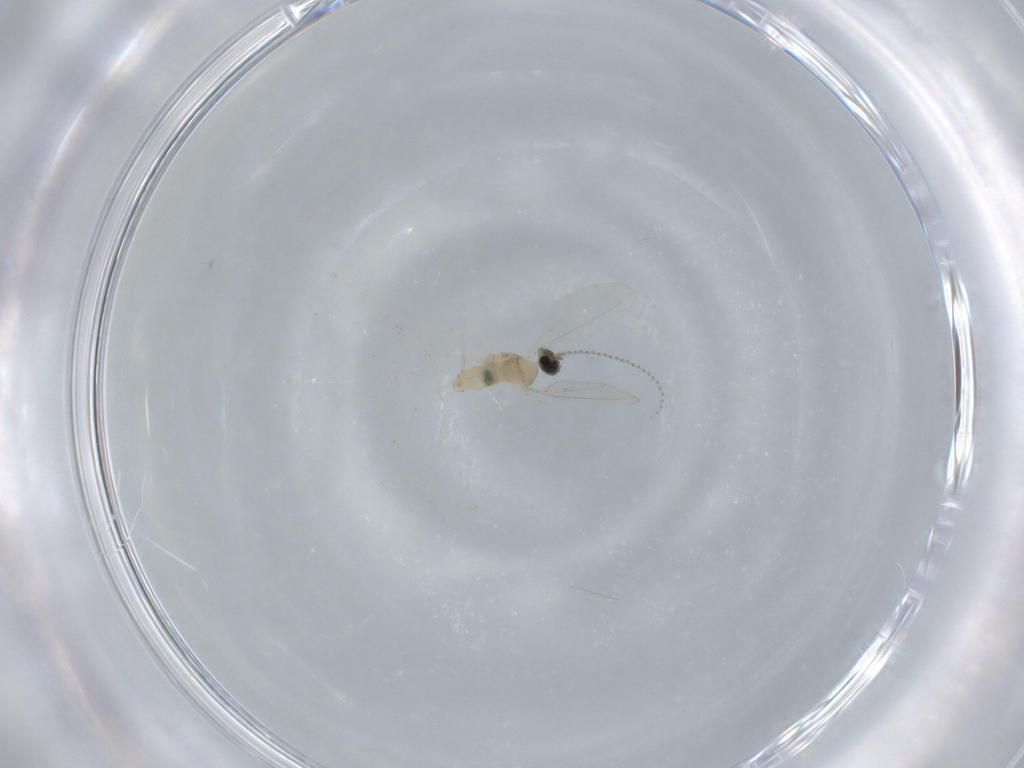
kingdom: Animalia
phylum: Arthropoda
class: Insecta
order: Diptera
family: Cecidomyiidae
